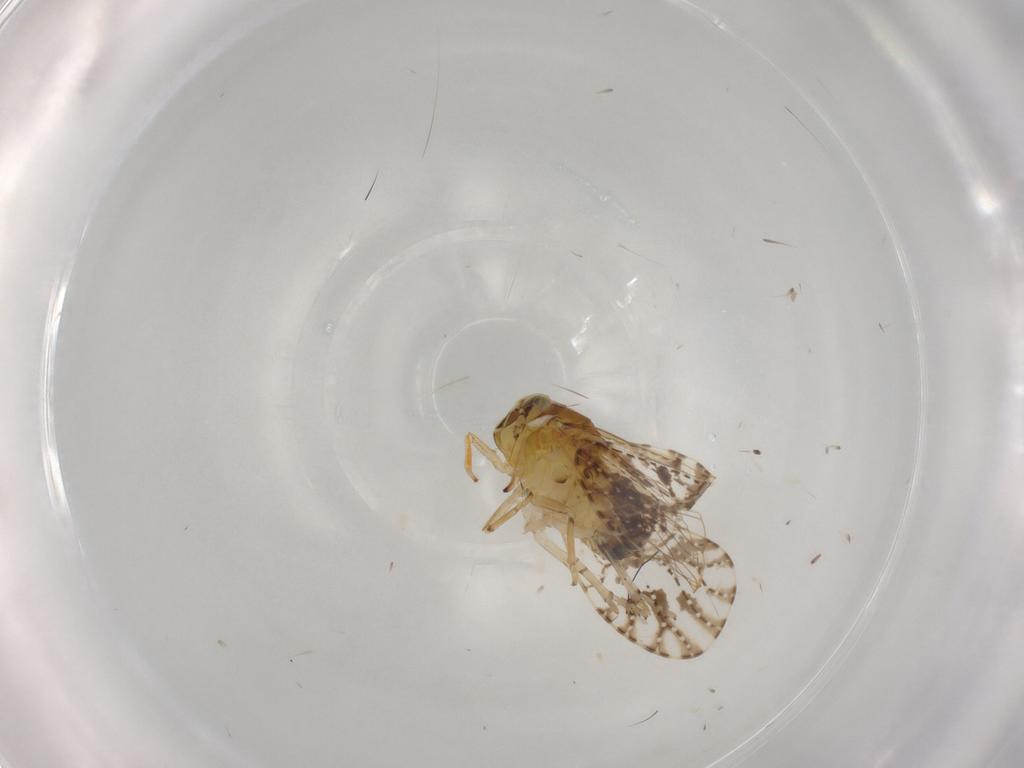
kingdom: Animalia
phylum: Arthropoda
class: Insecta
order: Hemiptera
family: Delphacidae
